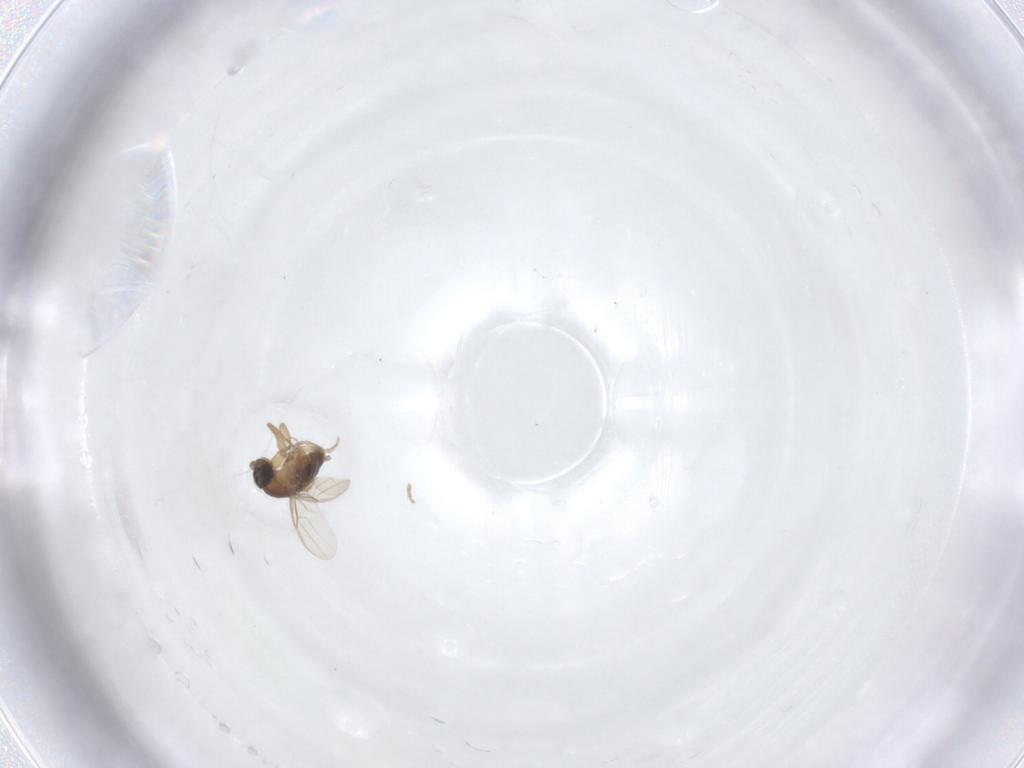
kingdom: Animalia
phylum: Arthropoda
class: Insecta
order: Diptera
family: Phoridae
